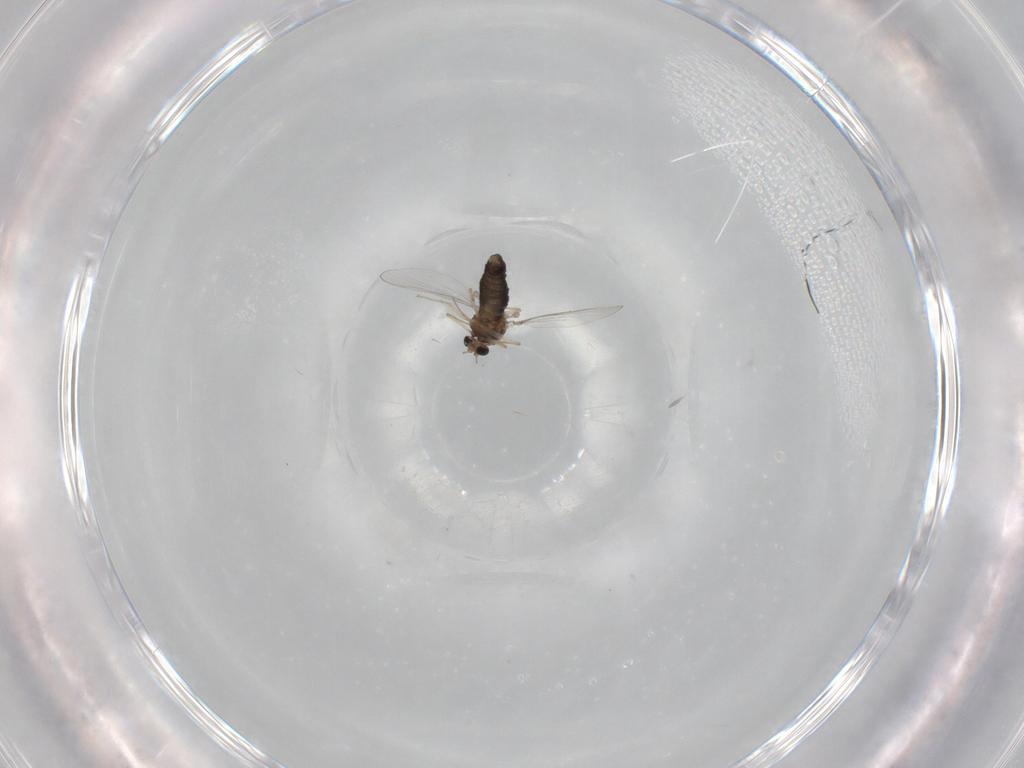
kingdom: Animalia
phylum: Arthropoda
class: Insecta
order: Diptera
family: Chironomidae
